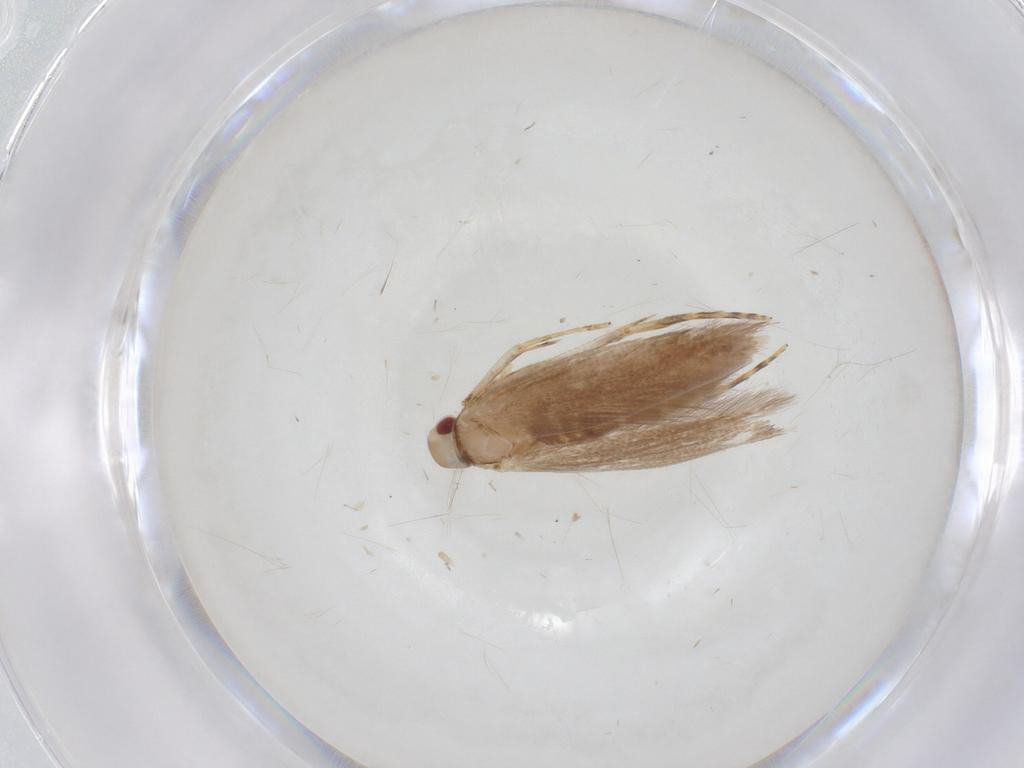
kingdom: Animalia
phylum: Arthropoda
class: Insecta
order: Lepidoptera
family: Cosmopterigidae
